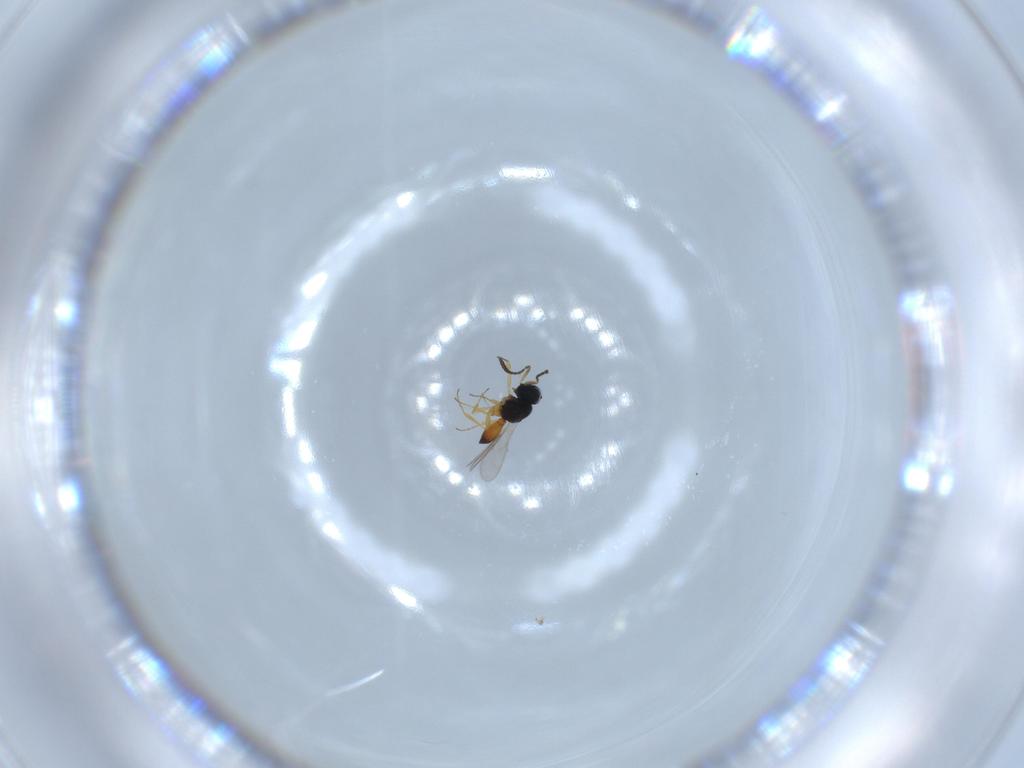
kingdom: Animalia
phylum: Arthropoda
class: Insecta
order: Hymenoptera
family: Scelionidae
